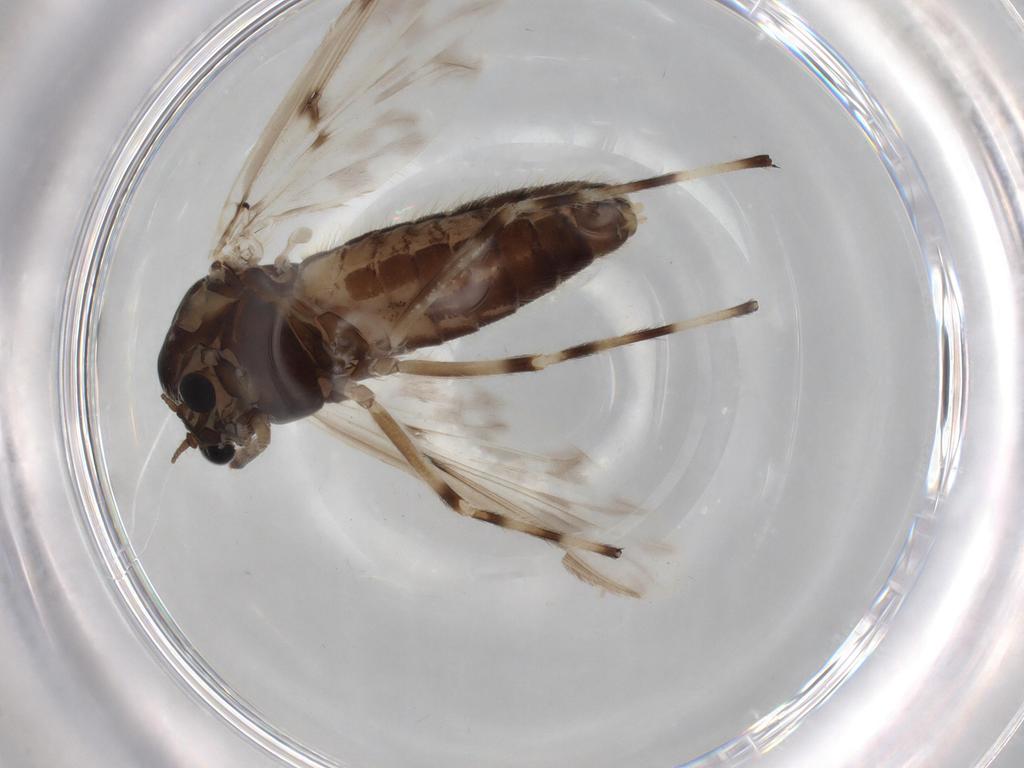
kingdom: Animalia
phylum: Arthropoda
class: Insecta
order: Diptera
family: Chironomidae
